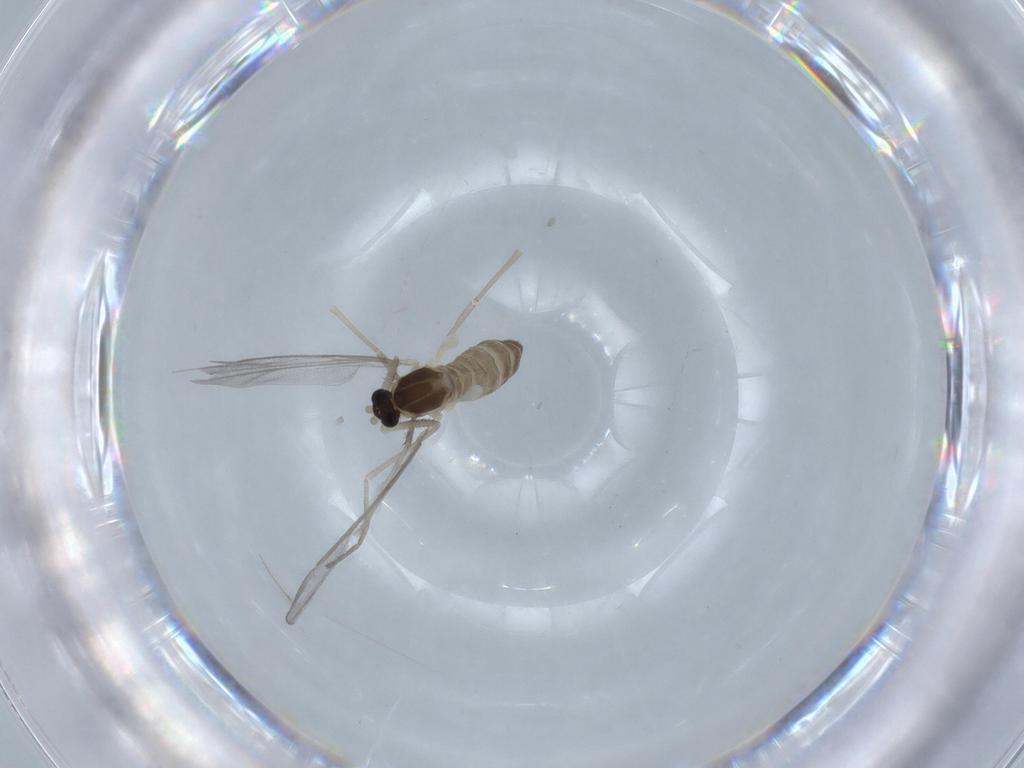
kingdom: Animalia
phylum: Arthropoda
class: Insecta
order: Diptera
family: Cecidomyiidae
